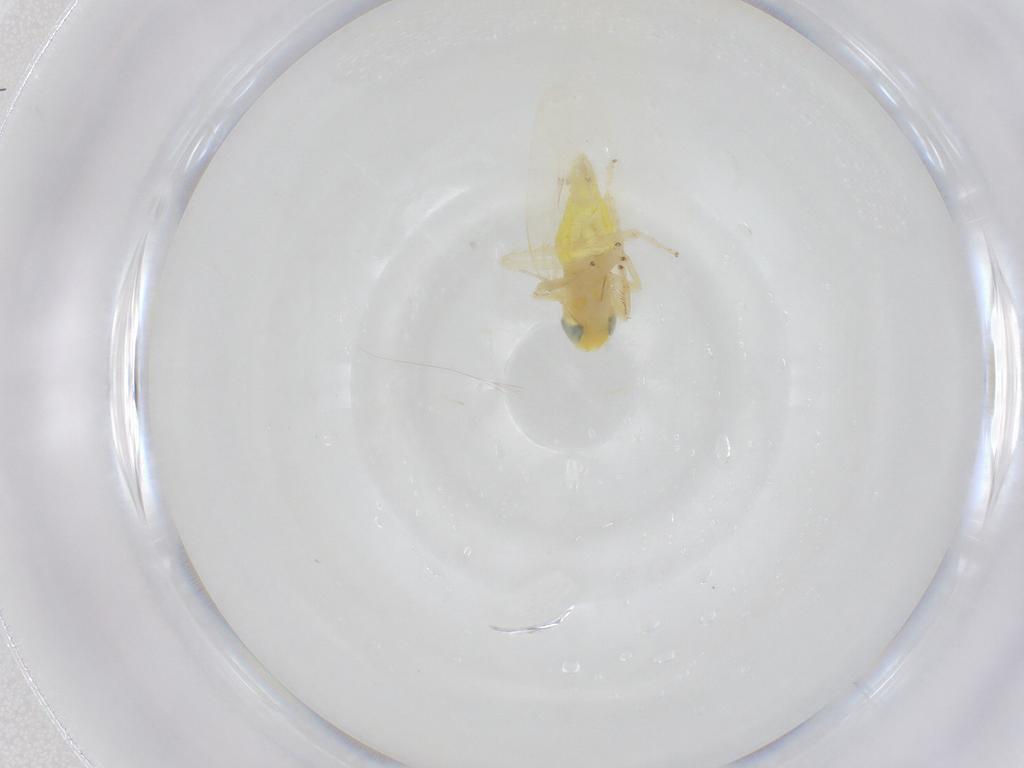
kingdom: Animalia
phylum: Arthropoda
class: Insecta
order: Hemiptera
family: Cicadellidae
